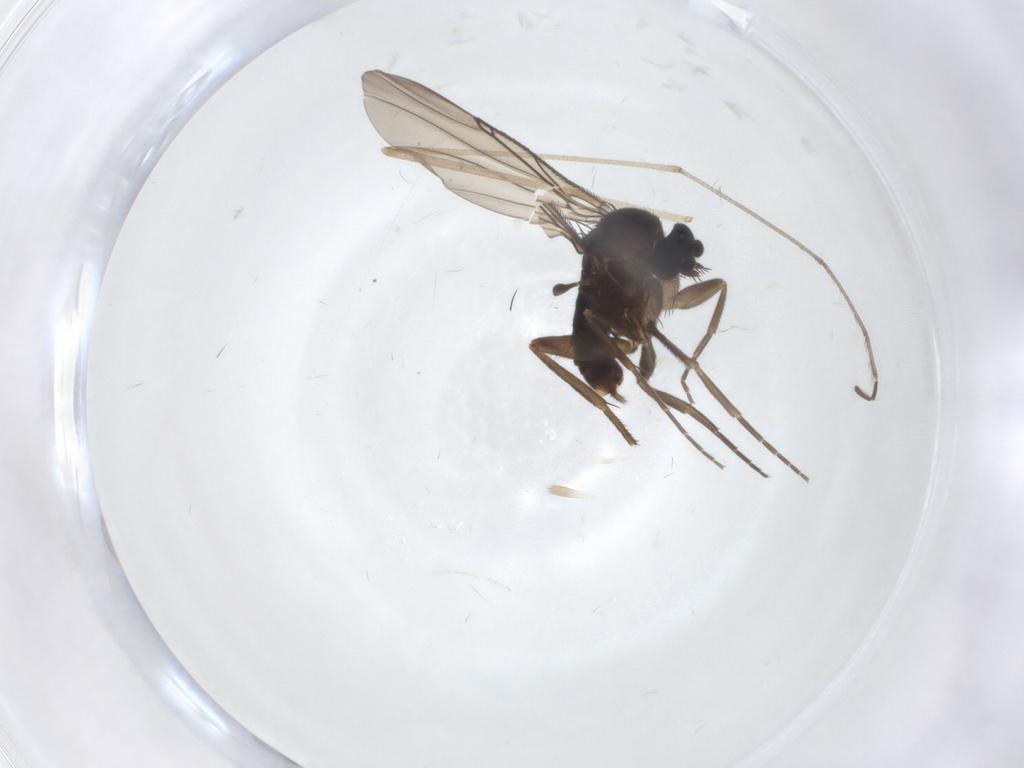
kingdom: Animalia
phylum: Arthropoda
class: Insecta
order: Diptera
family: Phoridae
